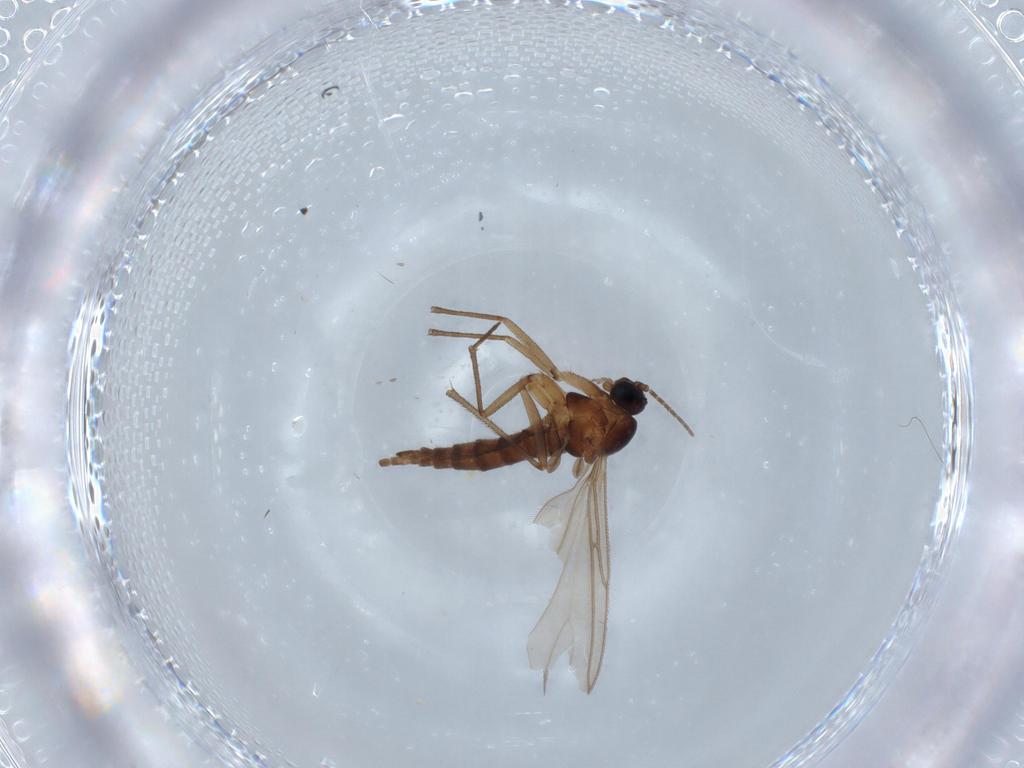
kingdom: Animalia
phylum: Arthropoda
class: Insecta
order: Diptera
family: Sciaridae
